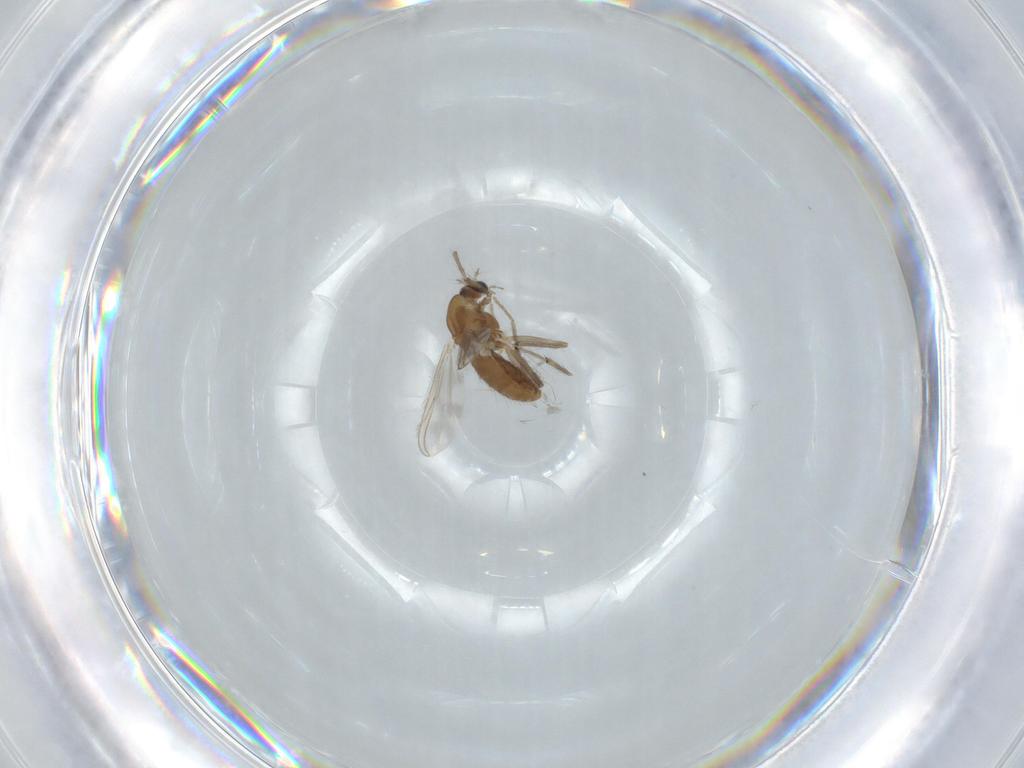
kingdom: Animalia
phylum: Arthropoda
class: Insecta
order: Diptera
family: Chironomidae
